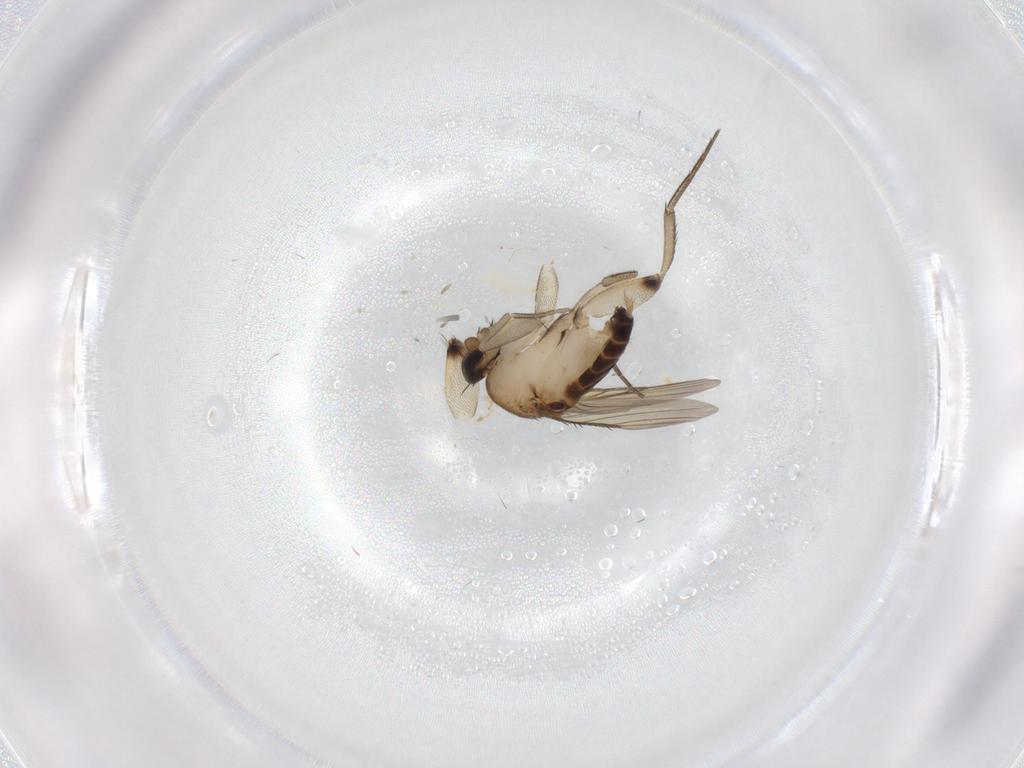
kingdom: Animalia
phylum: Arthropoda
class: Insecta
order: Diptera
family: Phoridae
